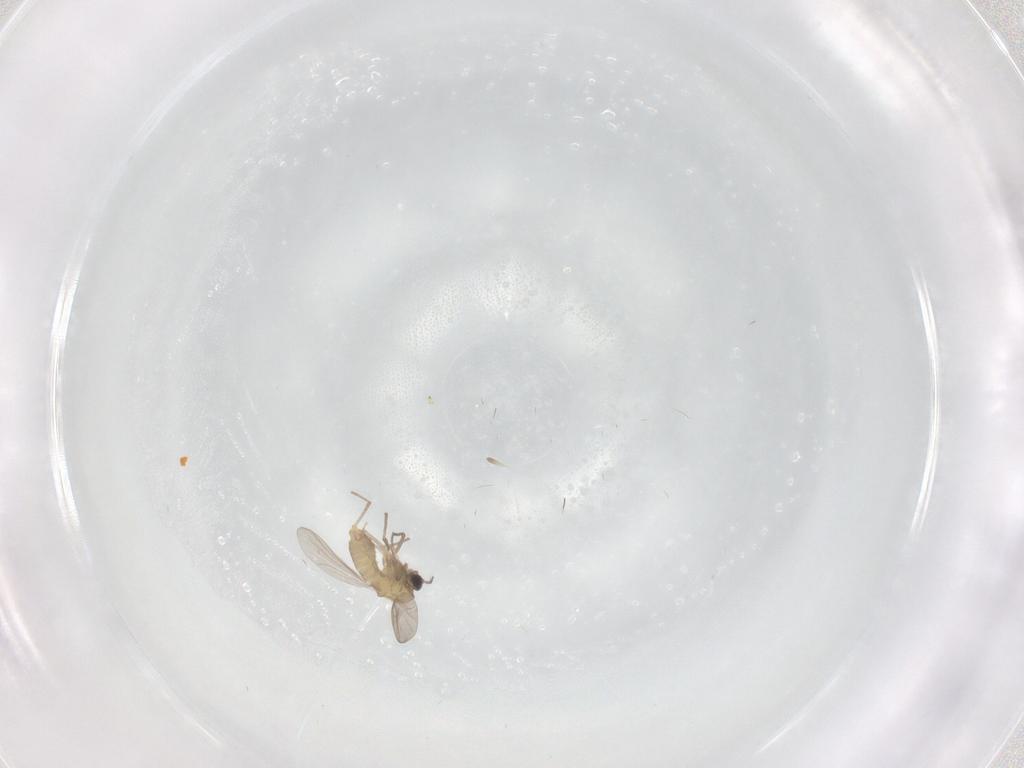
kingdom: Animalia
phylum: Arthropoda
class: Insecta
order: Diptera
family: Chironomidae
